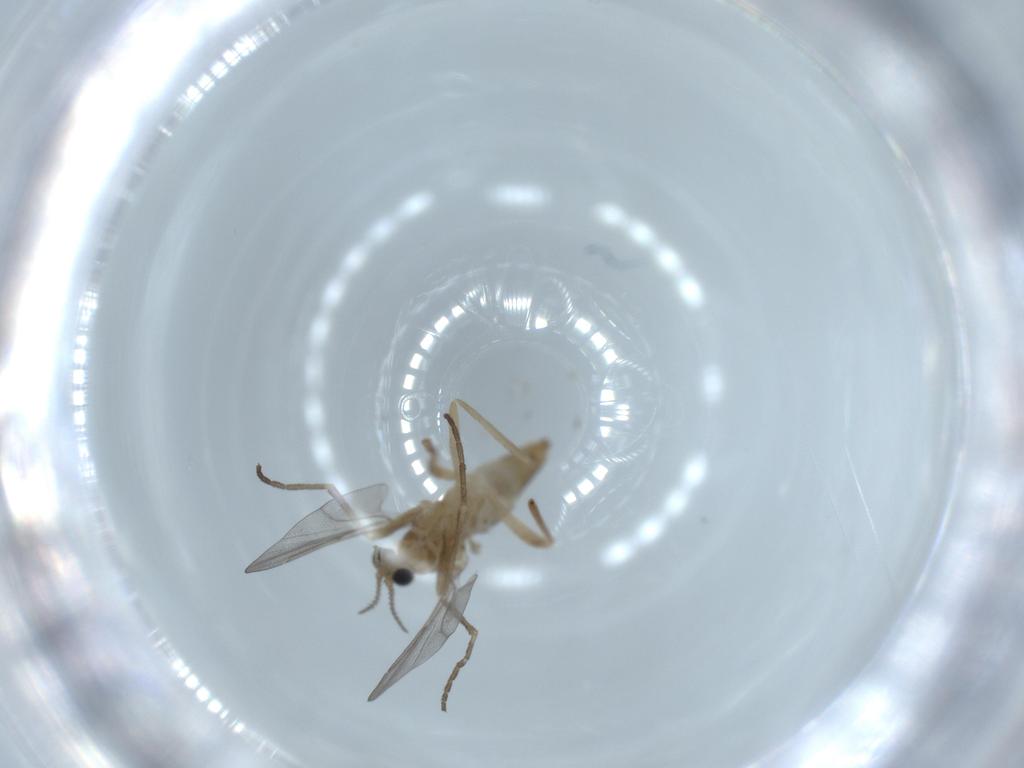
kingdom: Animalia
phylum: Arthropoda
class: Insecta
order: Diptera
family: Cecidomyiidae
